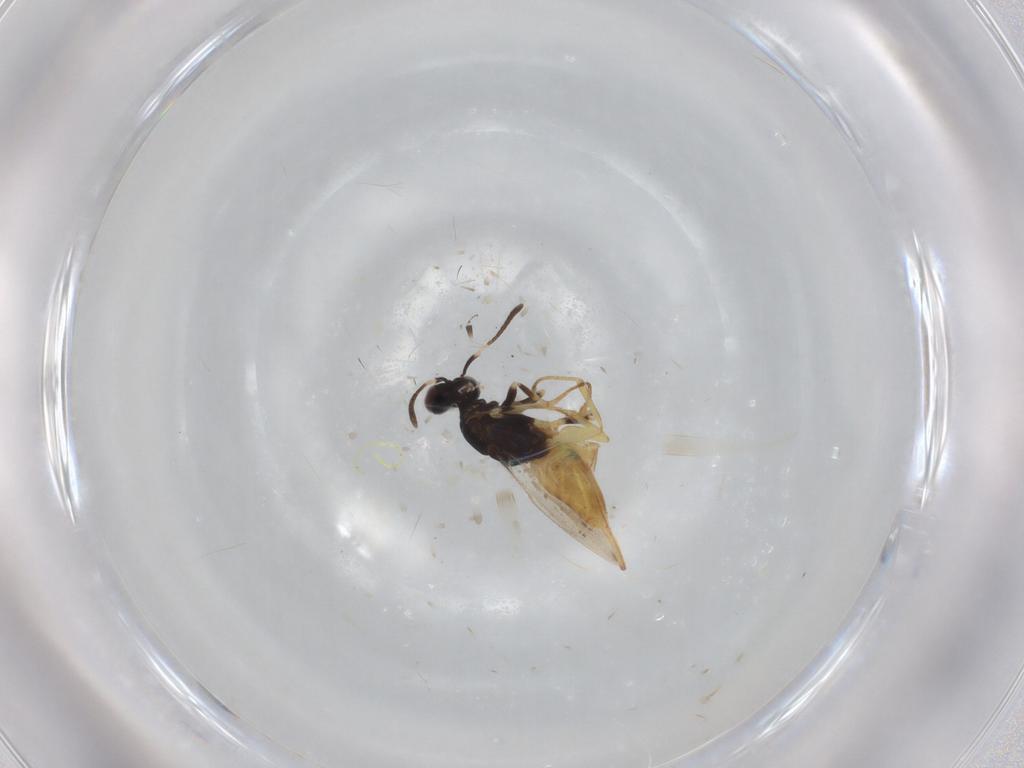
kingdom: Animalia
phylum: Arthropoda
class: Insecta
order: Hymenoptera
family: Eupelmidae
